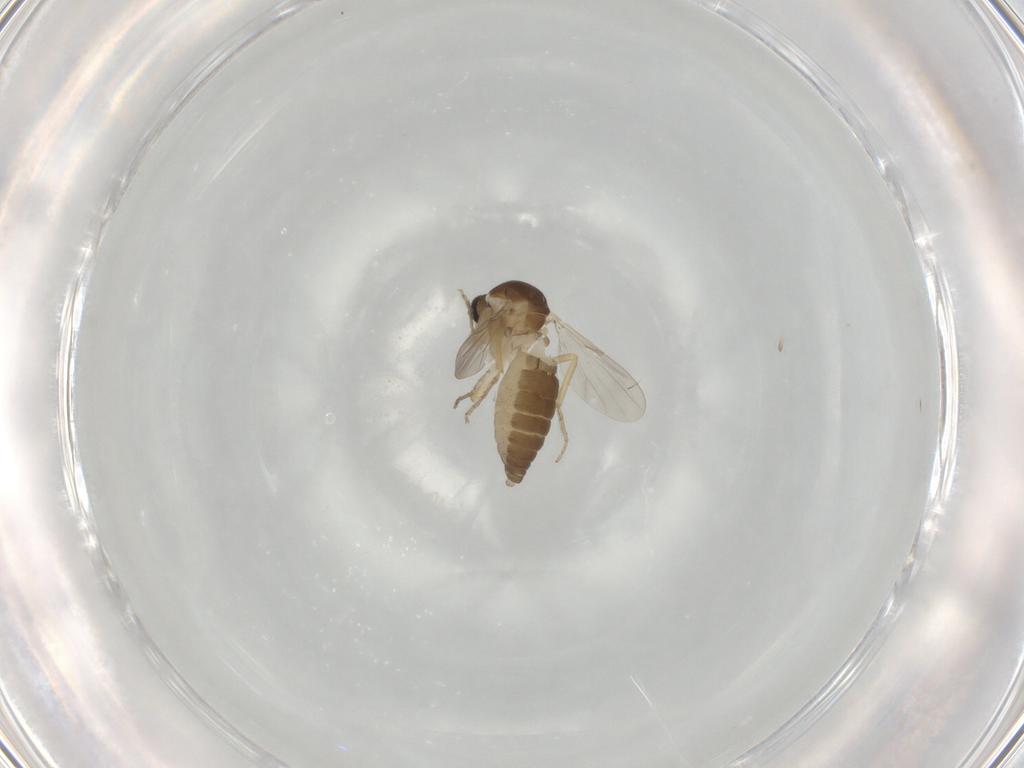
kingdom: Animalia
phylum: Arthropoda
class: Insecta
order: Diptera
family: Ceratopogonidae
